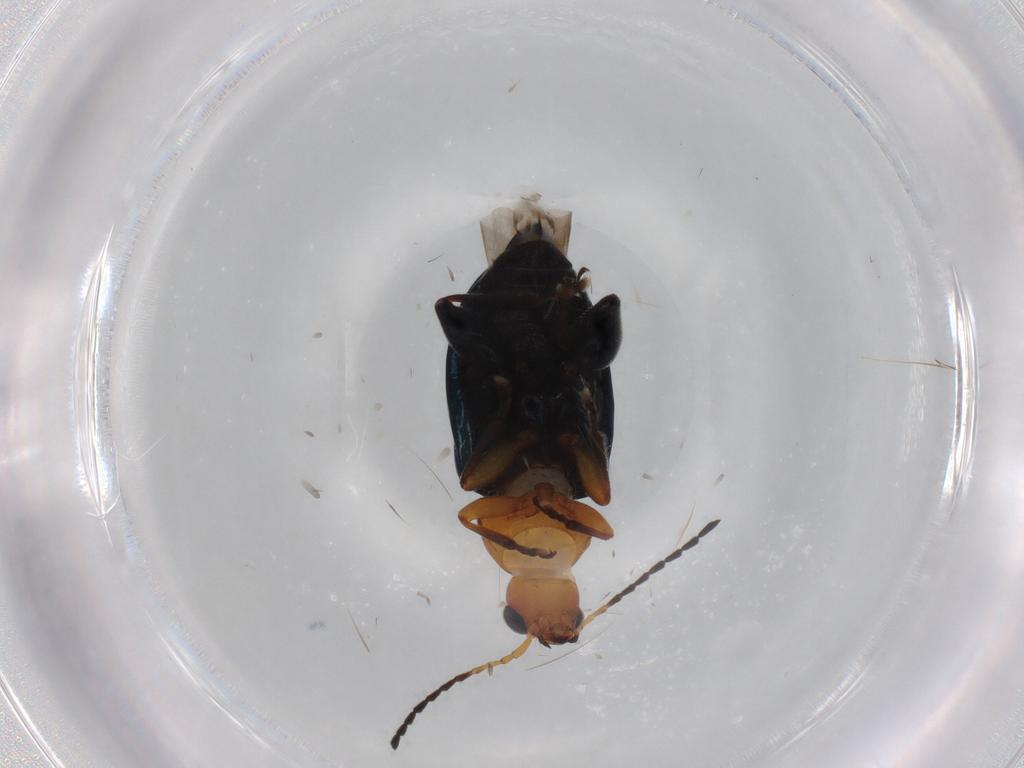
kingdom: Animalia
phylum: Arthropoda
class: Insecta
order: Coleoptera
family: Chrysomelidae
